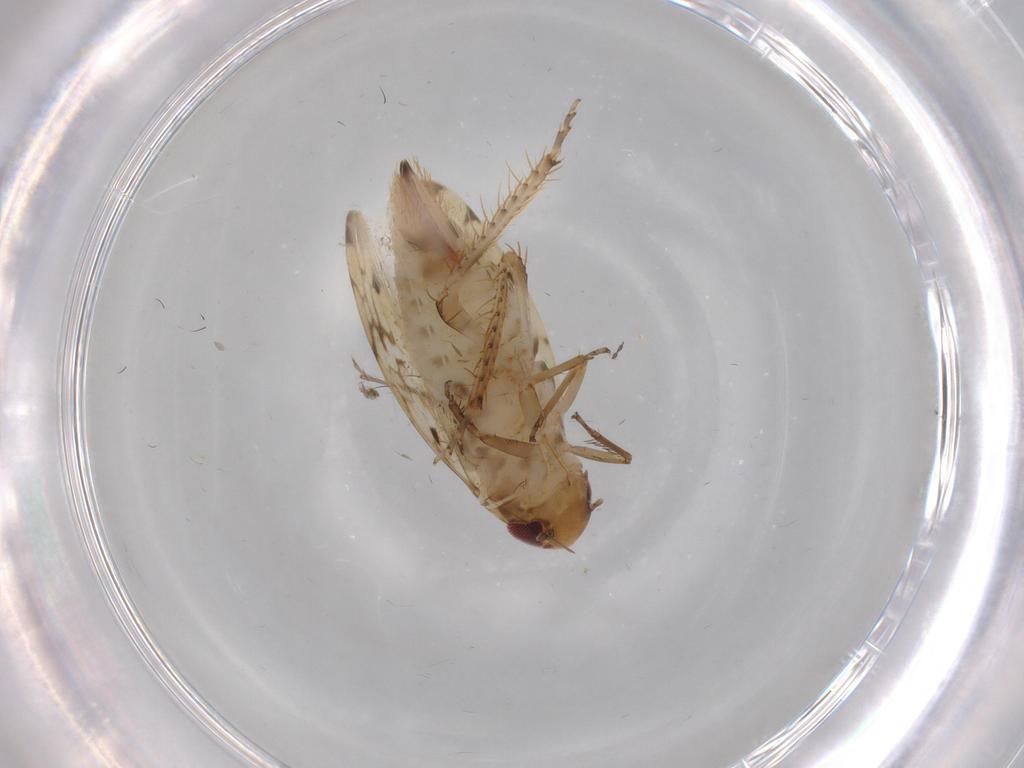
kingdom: Animalia
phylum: Arthropoda
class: Insecta
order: Hemiptera
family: Cicadellidae
